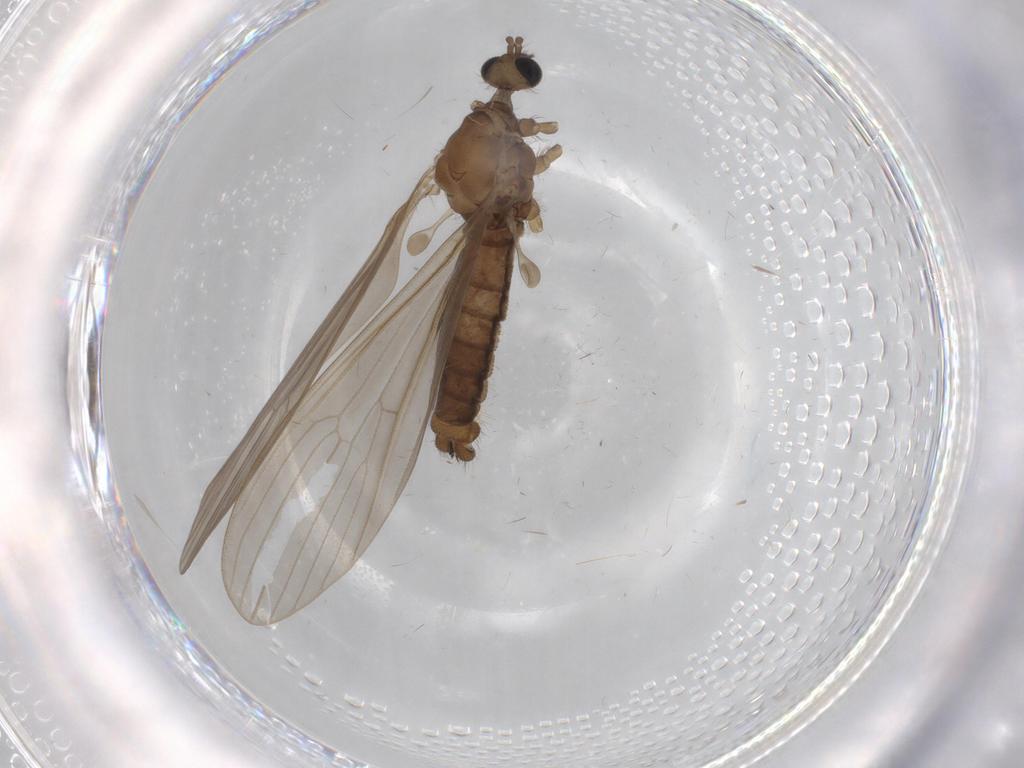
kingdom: Animalia
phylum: Arthropoda
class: Insecta
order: Diptera
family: Limoniidae
